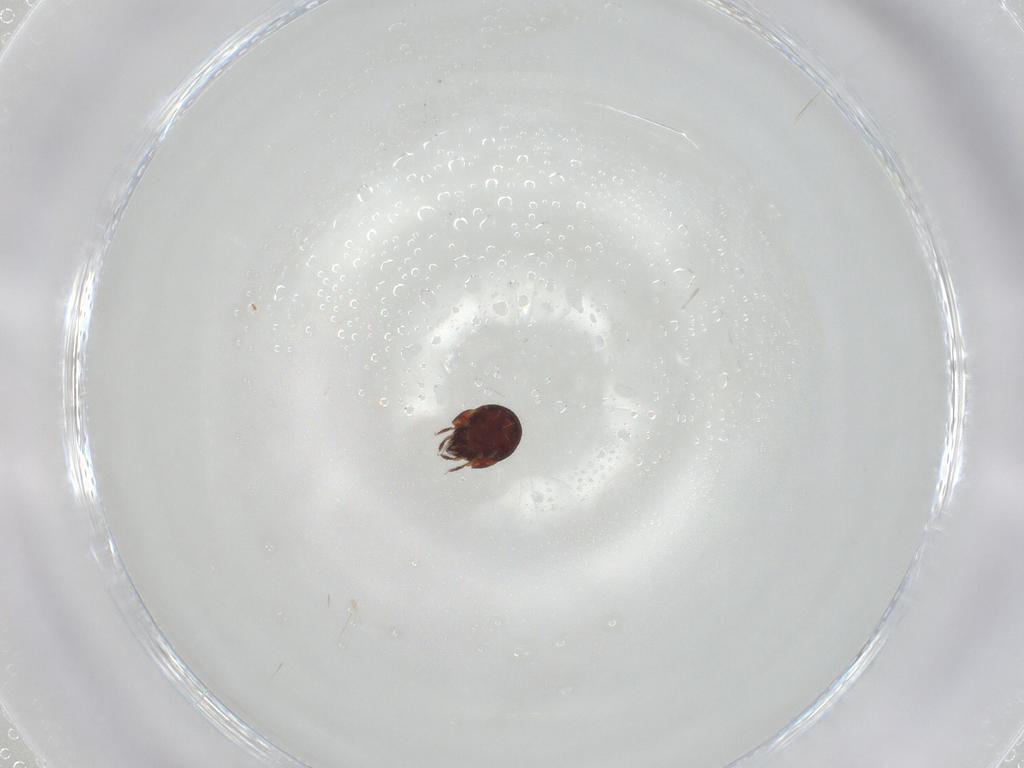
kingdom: Animalia
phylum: Arthropoda
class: Arachnida
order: Sarcoptiformes
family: Humerobatidae
